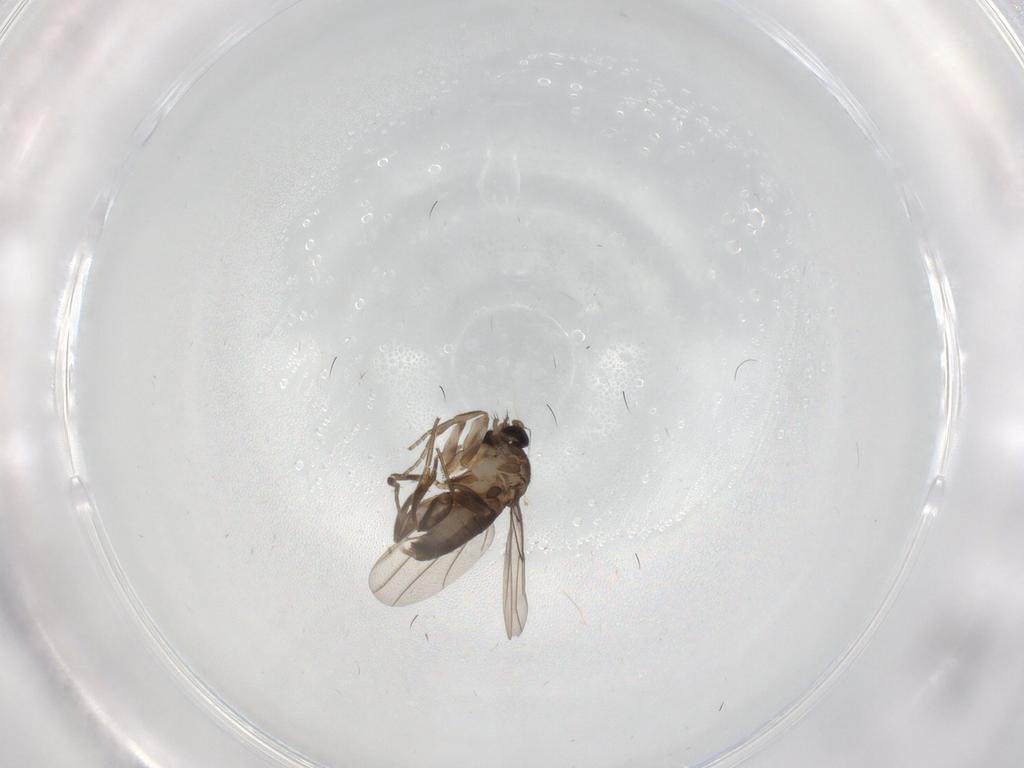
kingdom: Animalia
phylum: Arthropoda
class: Insecta
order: Diptera
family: Phoridae
